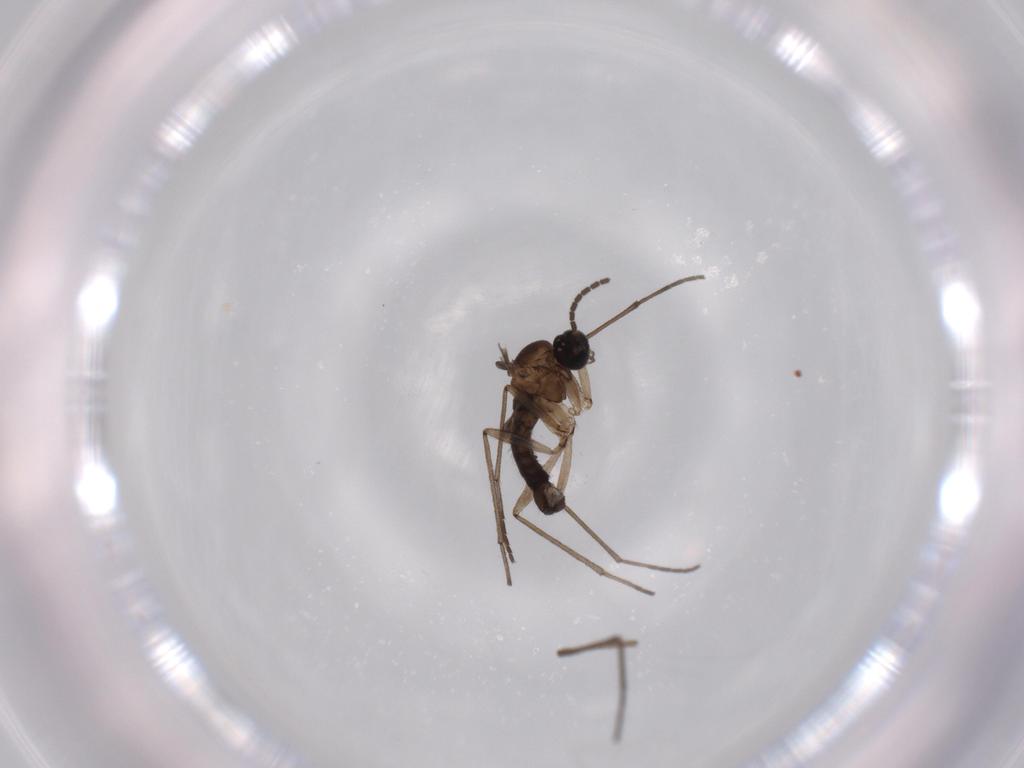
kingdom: Animalia
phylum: Arthropoda
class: Insecta
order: Diptera
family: Sciaridae
